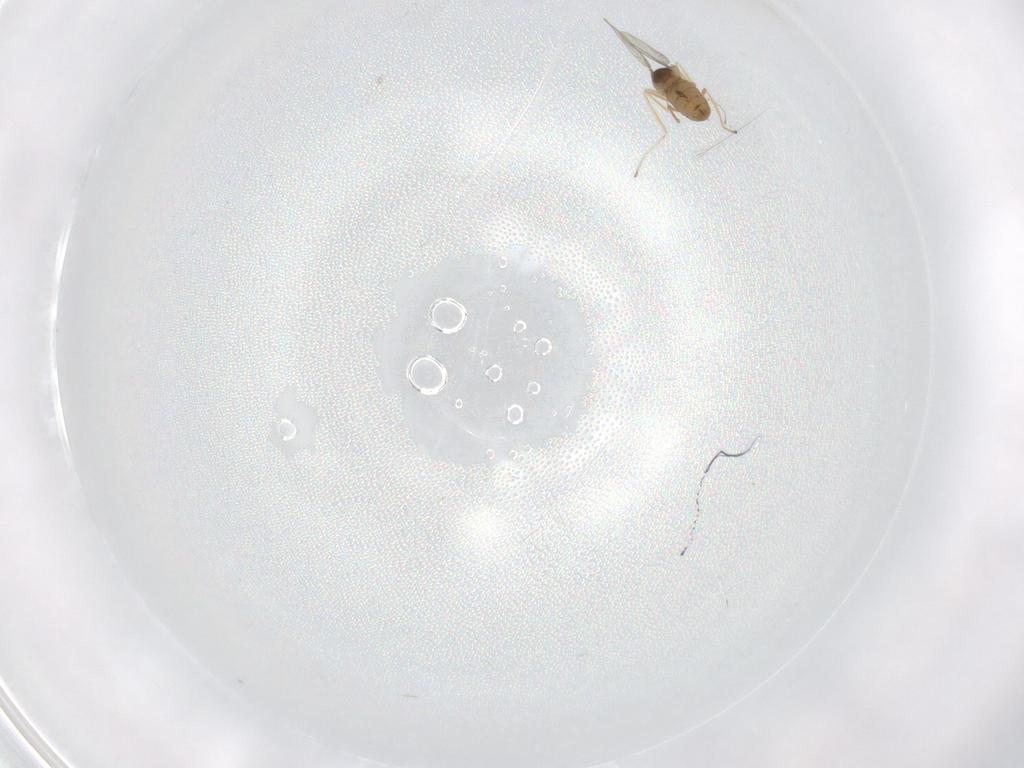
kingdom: Animalia
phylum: Arthropoda
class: Insecta
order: Diptera
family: Cecidomyiidae
